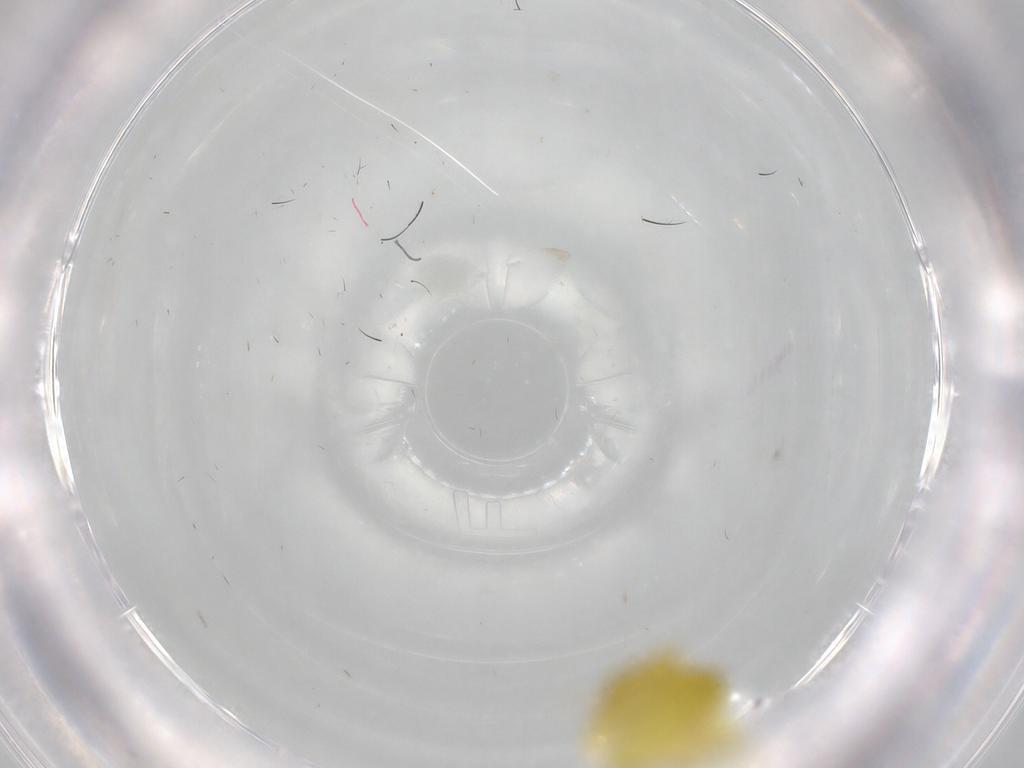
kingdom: Animalia
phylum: Arthropoda
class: Insecta
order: Hemiptera
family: Cicadellidae
